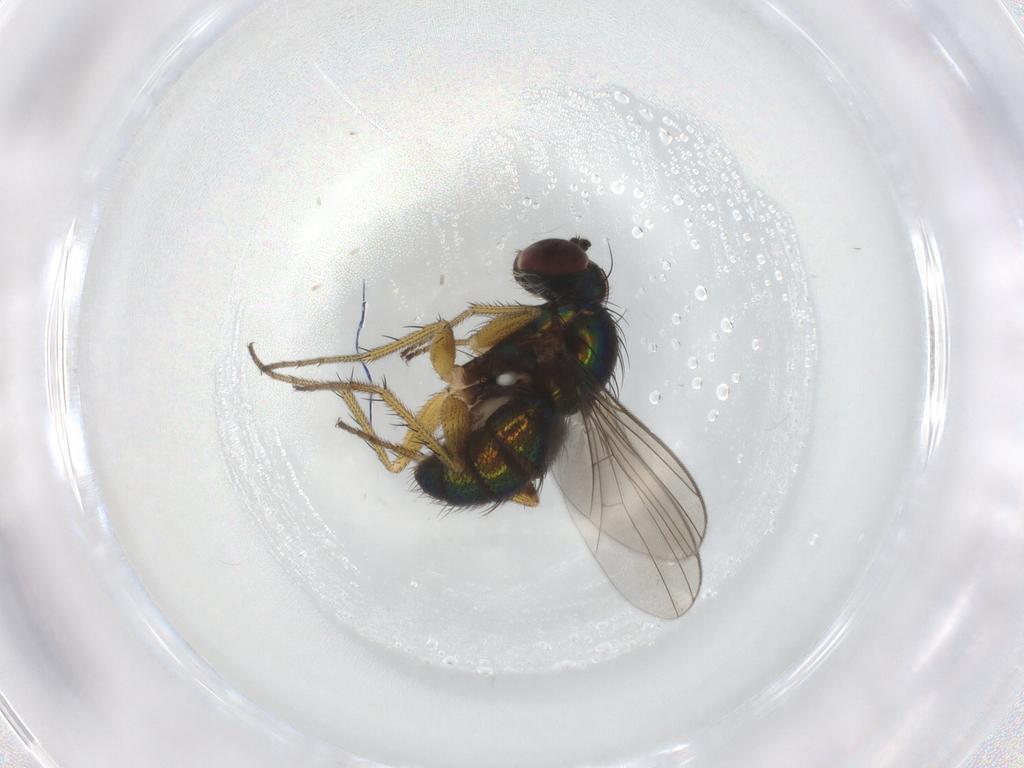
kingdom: Animalia
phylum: Arthropoda
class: Insecta
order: Diptera
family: Dolichopodidae
